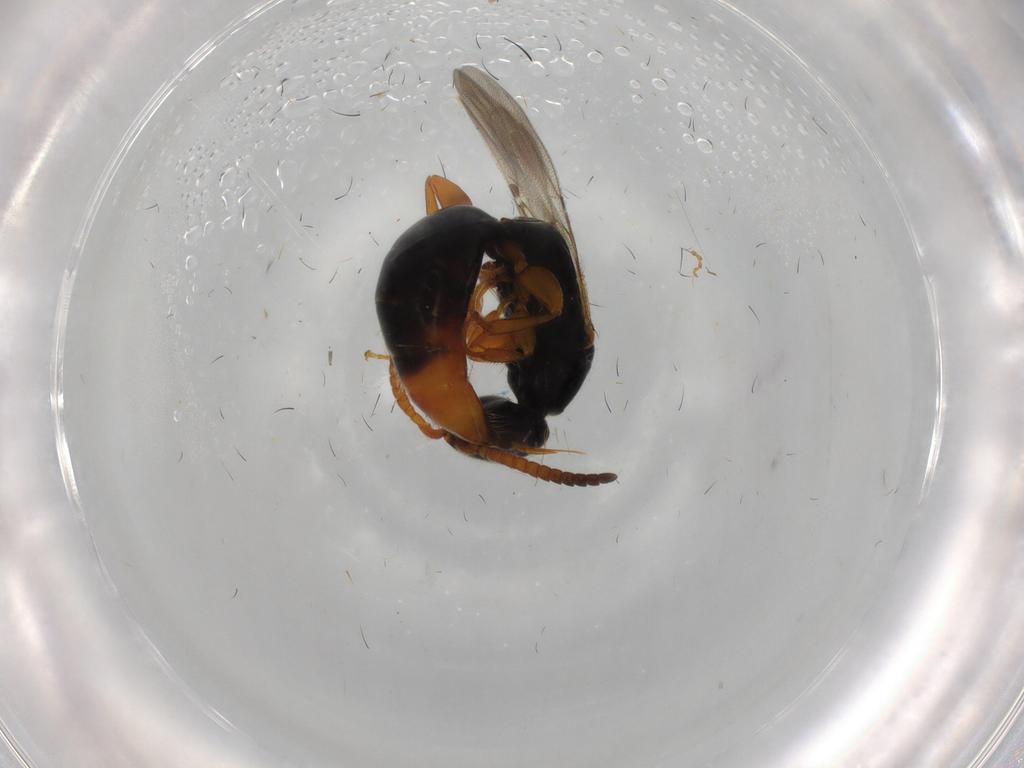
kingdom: Animalia
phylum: Arthropoda
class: Insecta
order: Hymenoptera
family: Bethylidae
